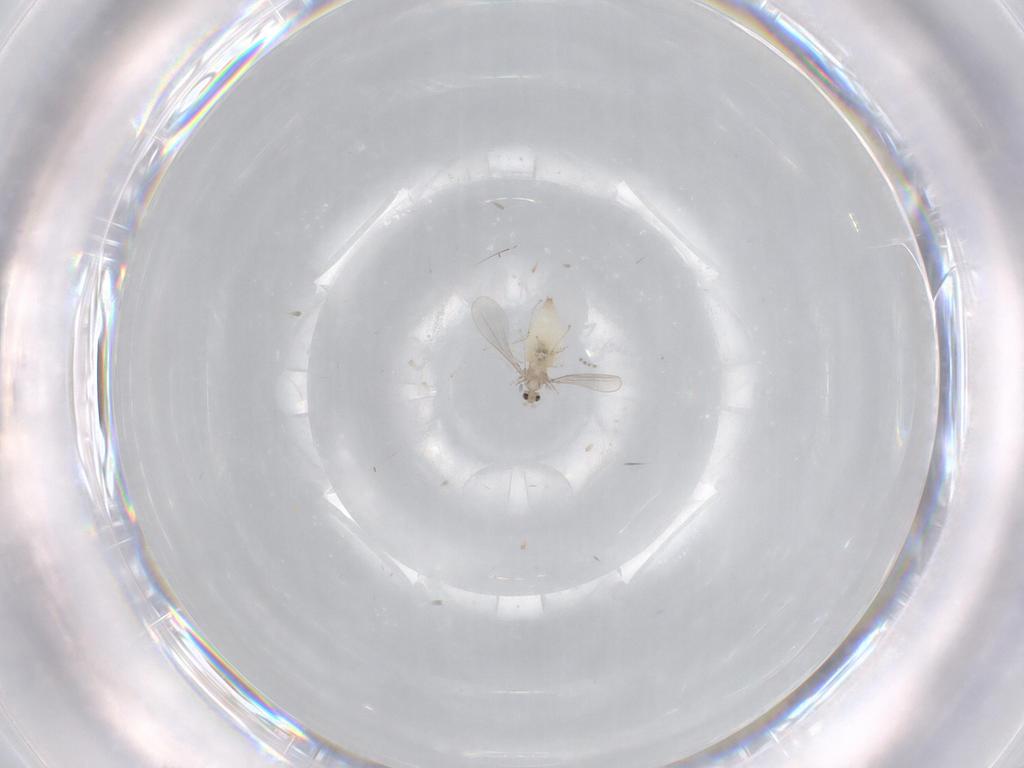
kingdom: Animalia
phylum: Arthropoda
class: Insecta
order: Diptera
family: Cecidomyiidae
